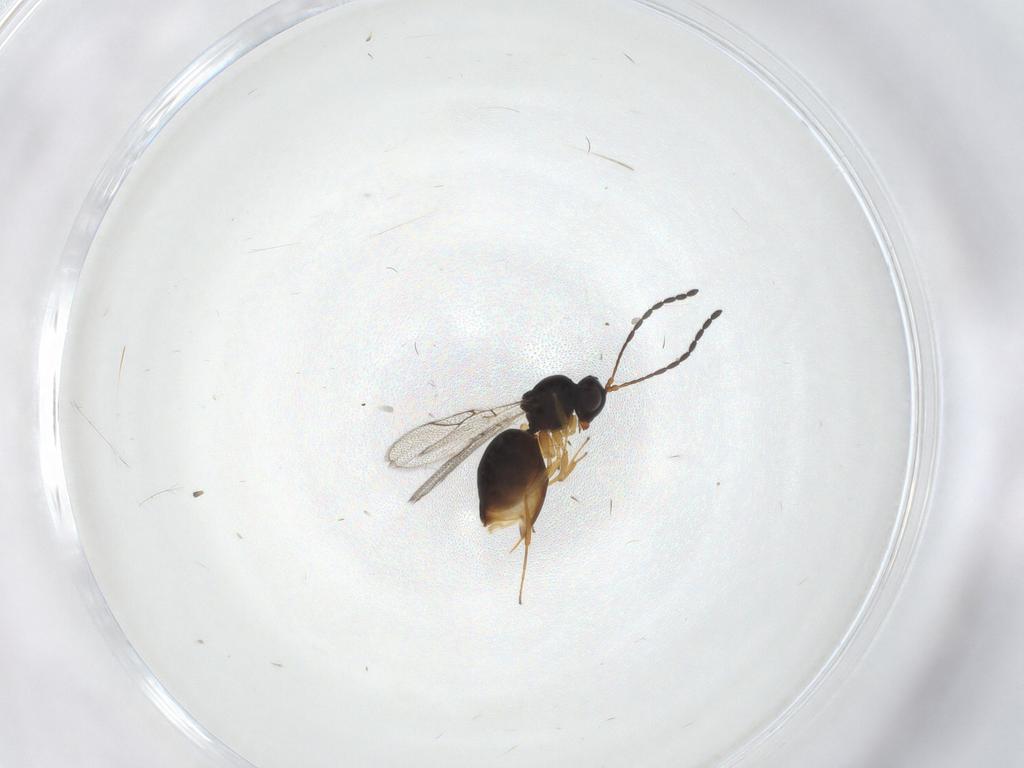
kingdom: Animalia
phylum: Arthropoda
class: Insecta
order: Hymenoptera
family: Figitidae
